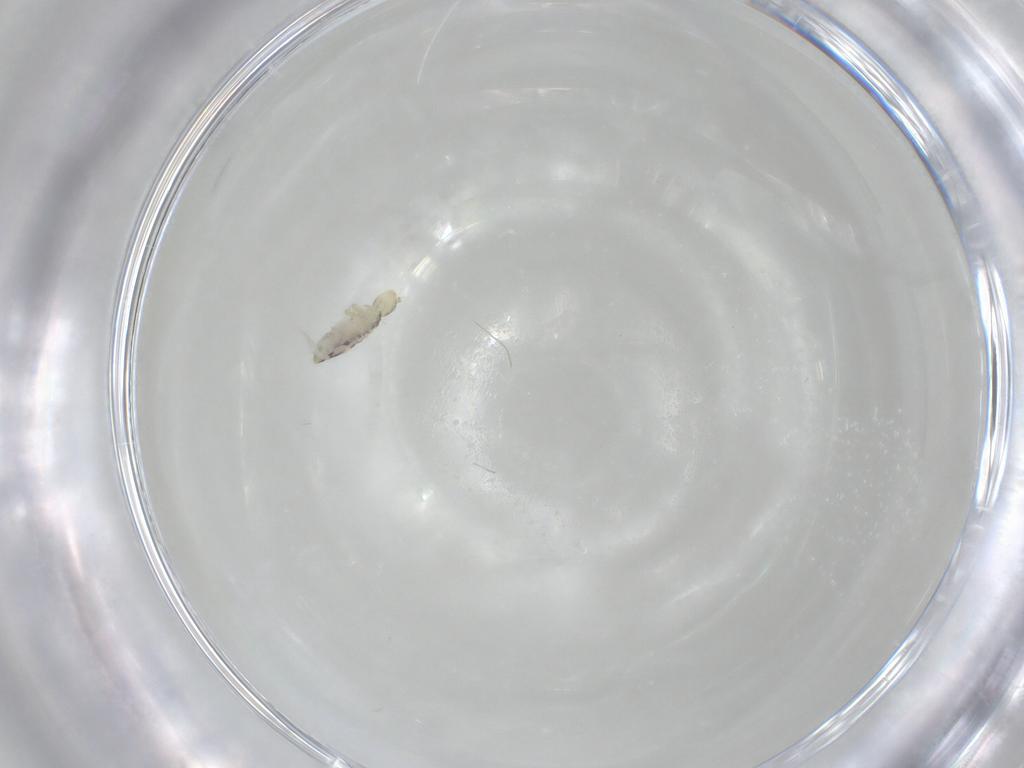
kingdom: Animalia
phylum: Arthropoda
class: Collembola
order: Entomobryomorpha
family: Entomobryidae
